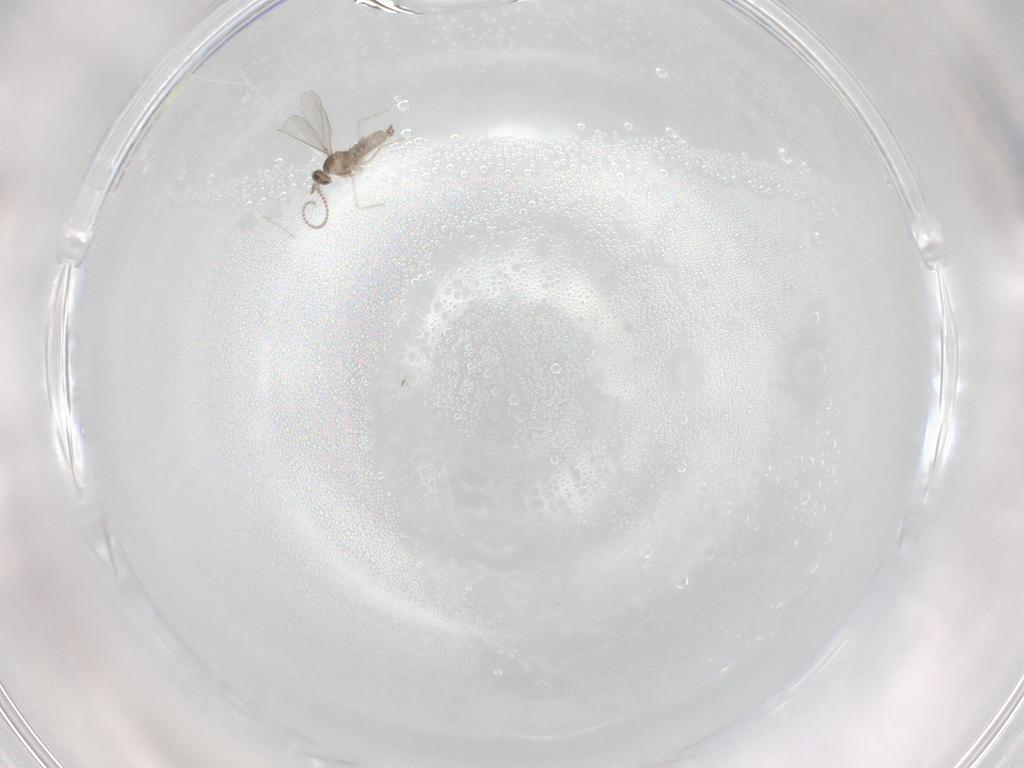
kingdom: Animalia
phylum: Arthropoda
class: Insecta
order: Diptera
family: Cecidomyiidae
